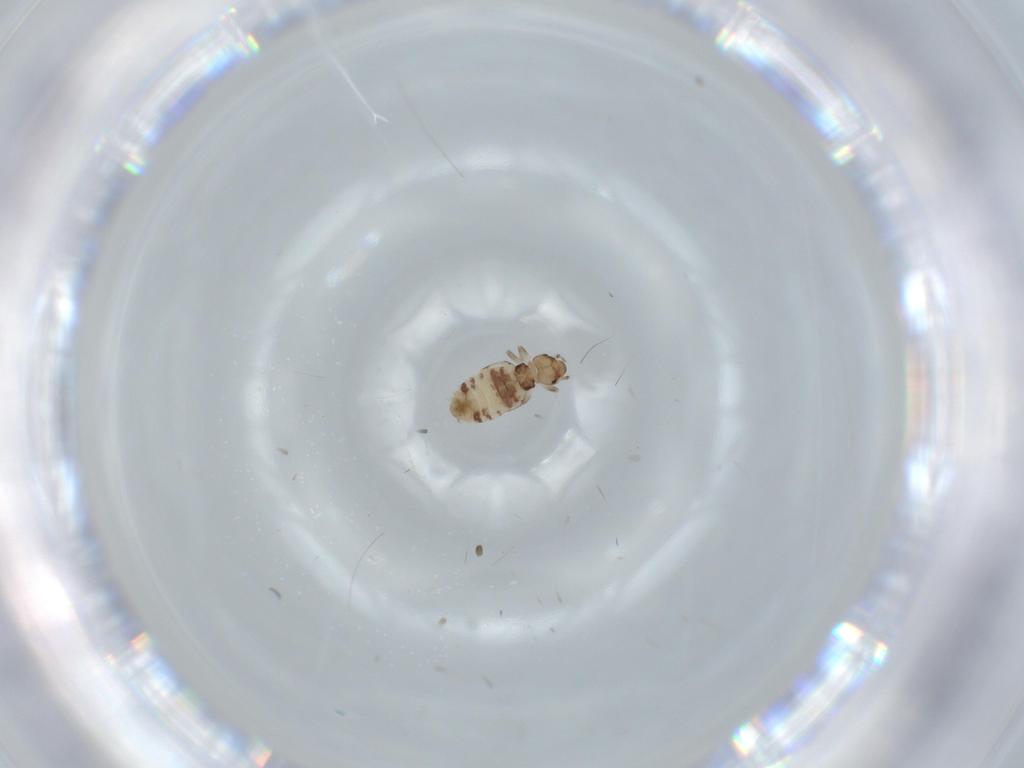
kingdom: Animalia
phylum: Arthropoda
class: Insecta
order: Psocodea
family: Liposcelididae
